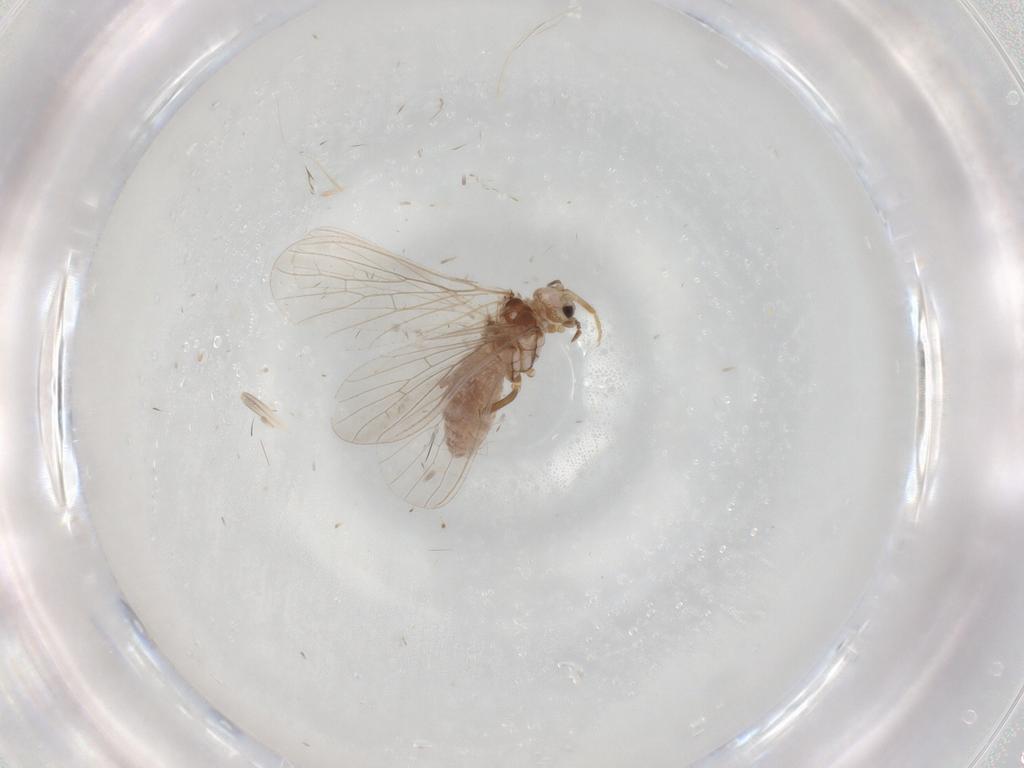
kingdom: Animalia
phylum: Arthropoda
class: Insecta
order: Neuroptera
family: Coniopterygidae
